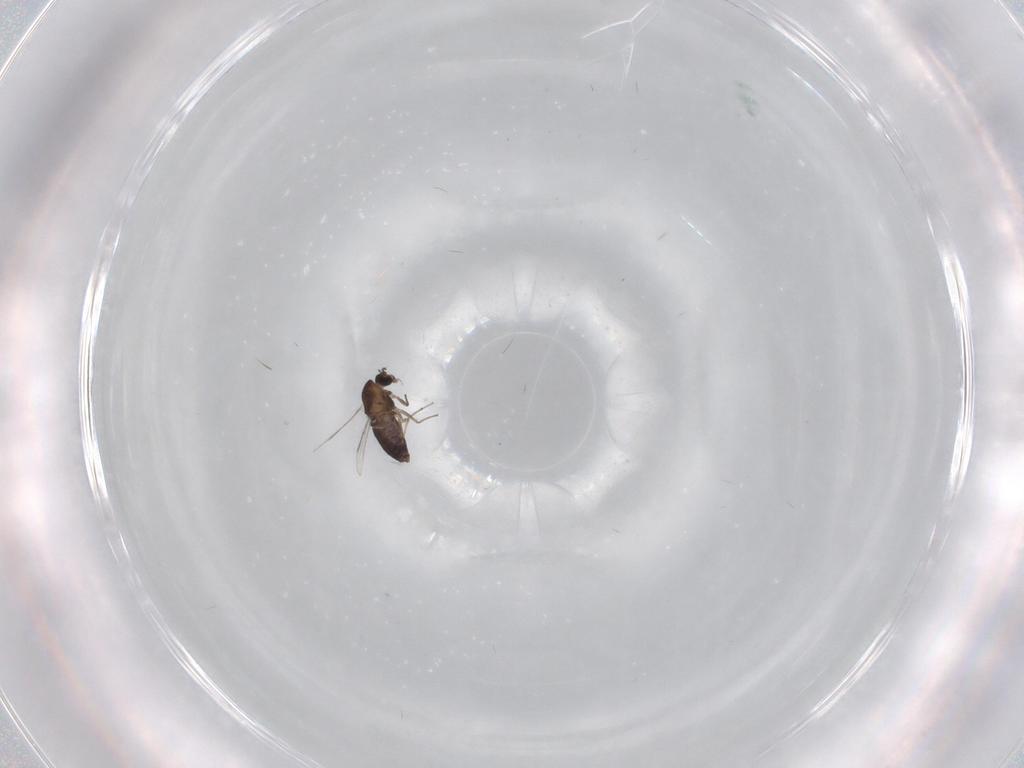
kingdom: Animalia
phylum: Arthropoda
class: Insecta
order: Diptera
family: Chironomidae
